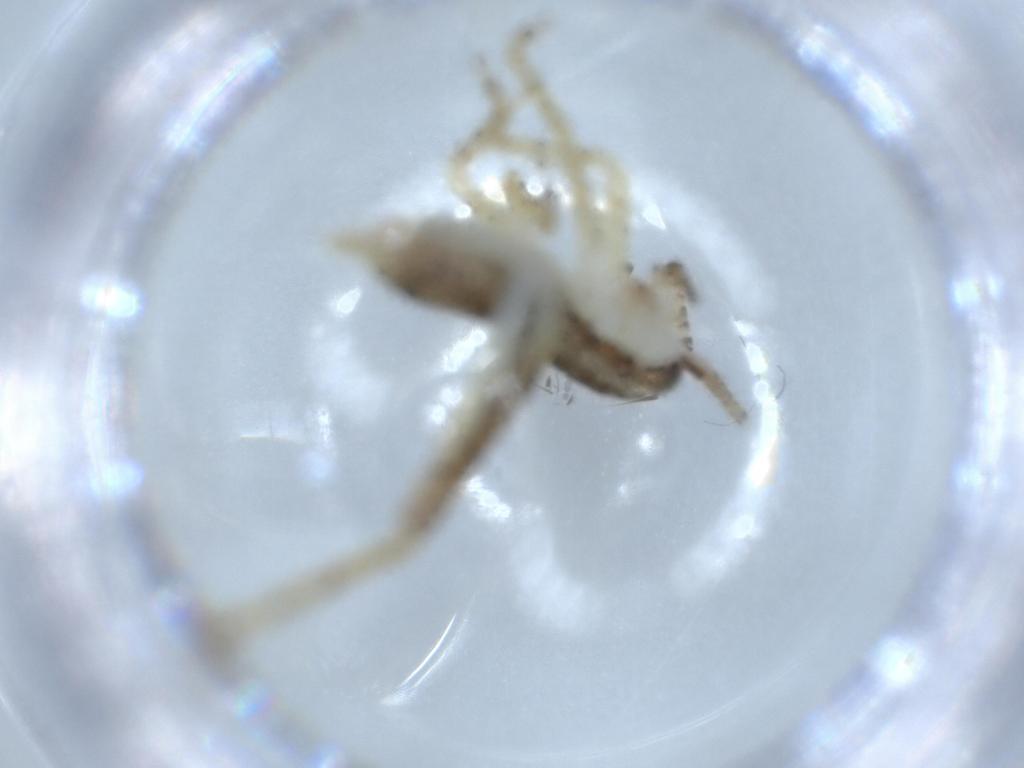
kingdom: Animalia
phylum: Arthropoda
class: Insecta
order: Orthoptera
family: Gryllidae
